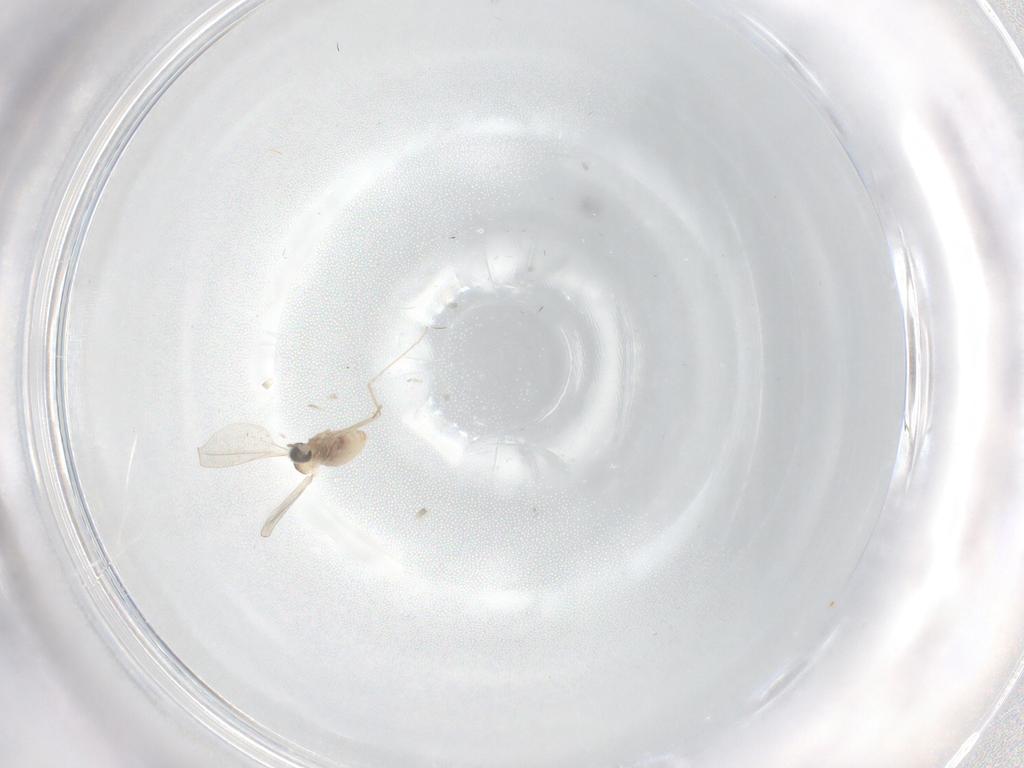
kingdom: Animalia
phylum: Arthropoda
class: Insecta
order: Diptera
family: Cecidomyiidae
